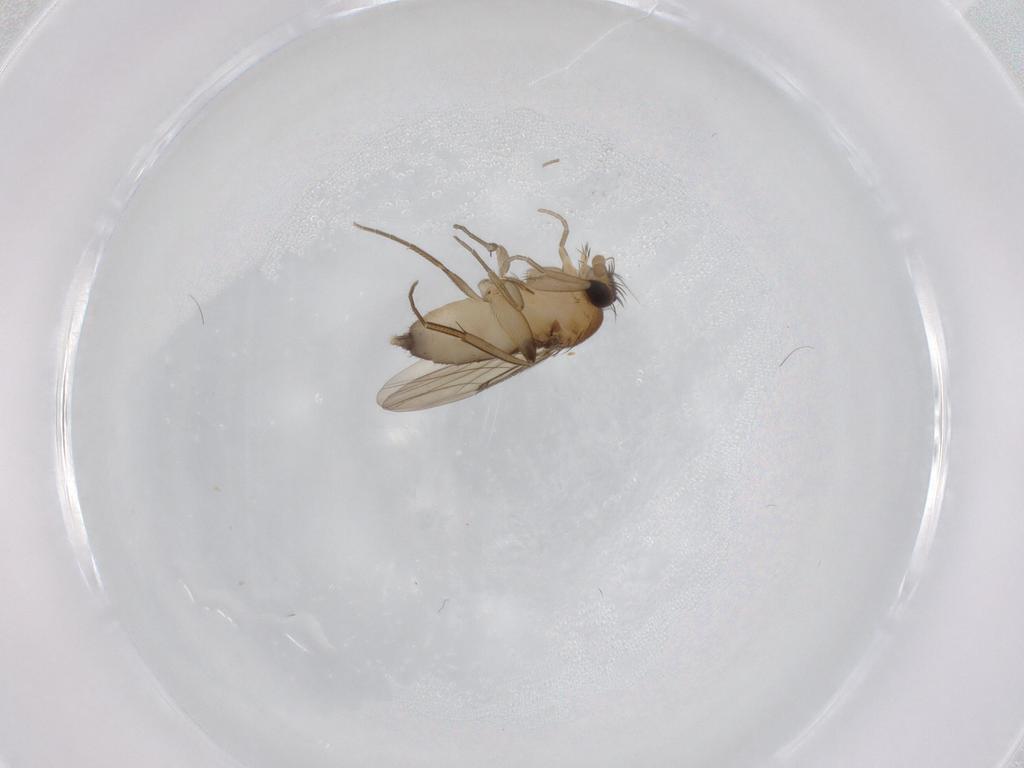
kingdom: Animalia
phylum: Arthropoda
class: Insecta
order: Diptera
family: Phoridae
